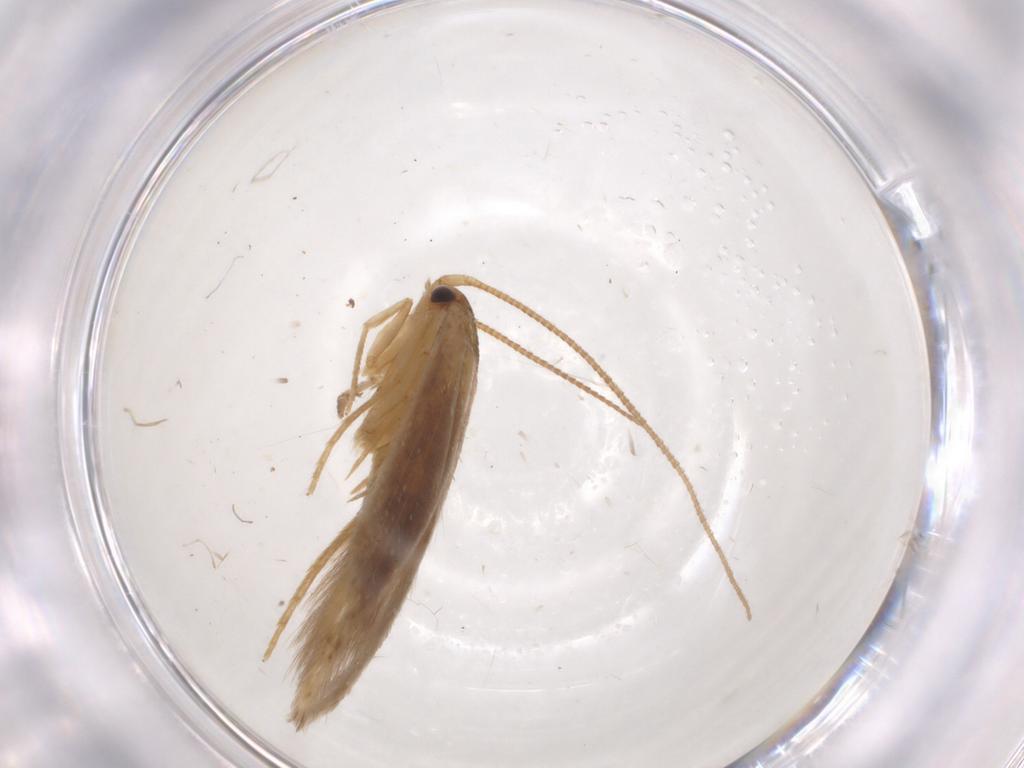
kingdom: Animalia
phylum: Arthropoda
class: Insecta
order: Lepidoptera
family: Tineidae
